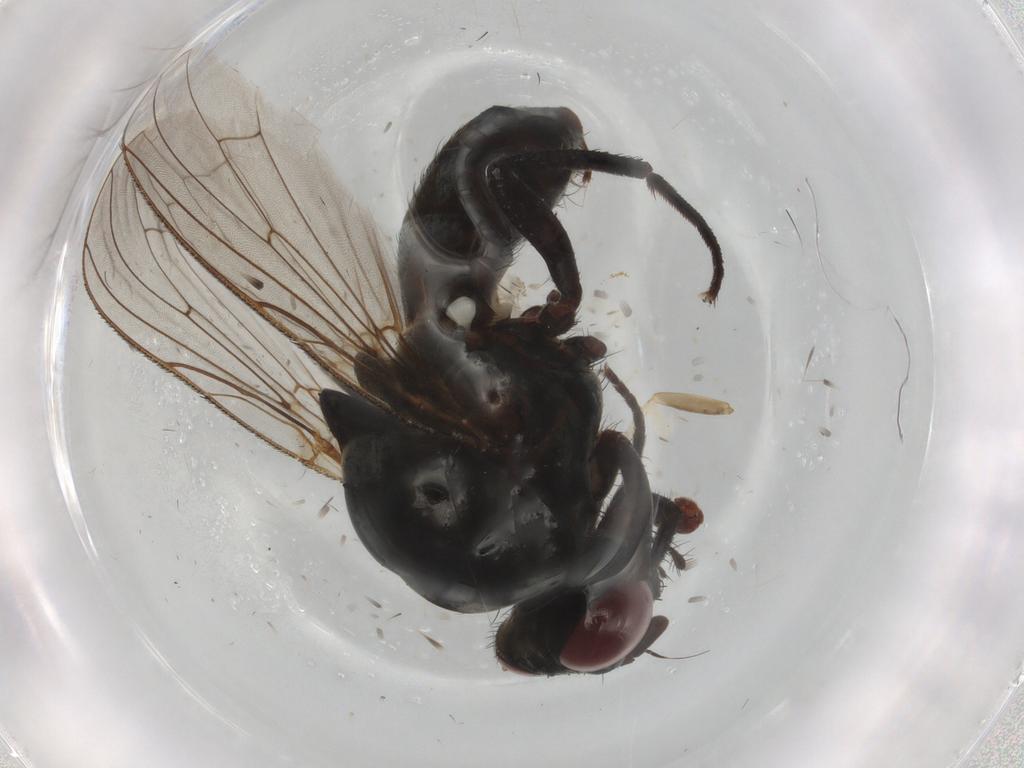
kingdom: Animalia
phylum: Arthropoda
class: Insecta
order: Diptera
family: Anthomyiidae
